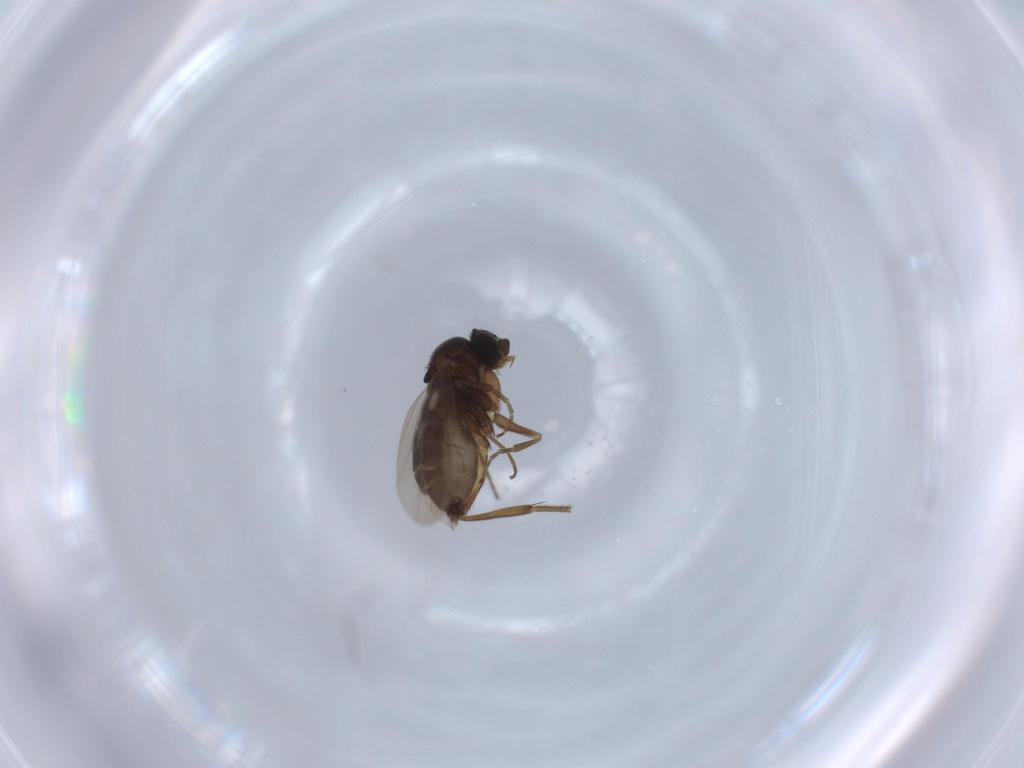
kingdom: Animalia
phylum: Arthropoda
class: Insecta
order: Diptera
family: Phoridae
